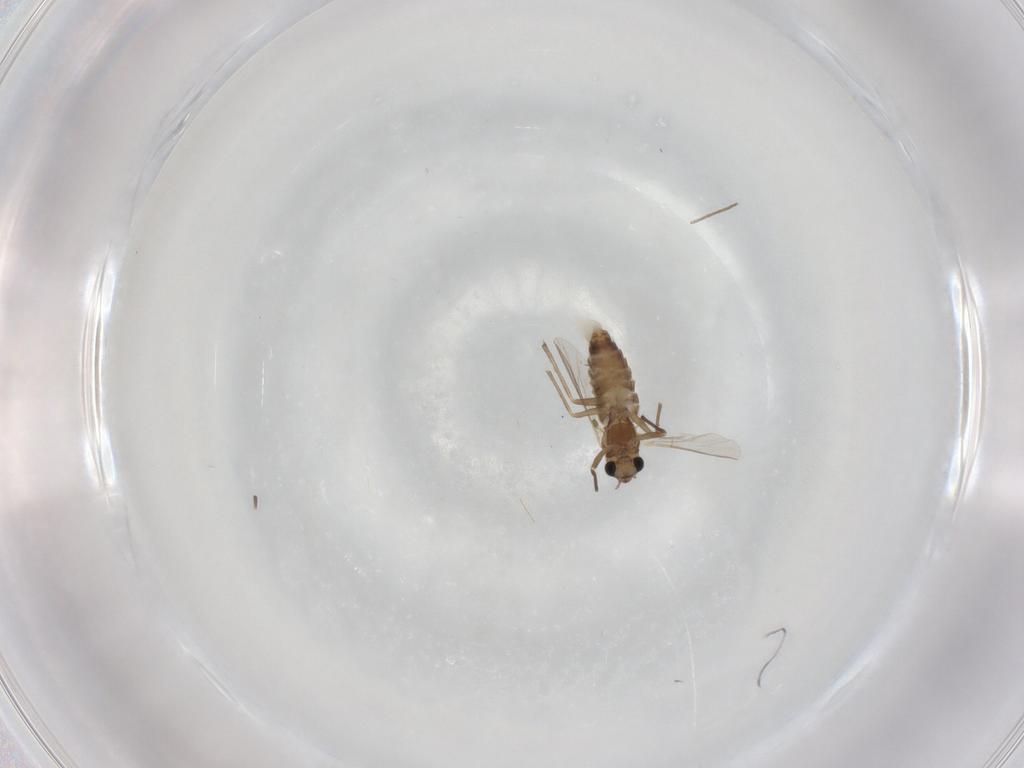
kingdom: Animalia
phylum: Arthropoda
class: Insecta
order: Diptera
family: Chironomidae
